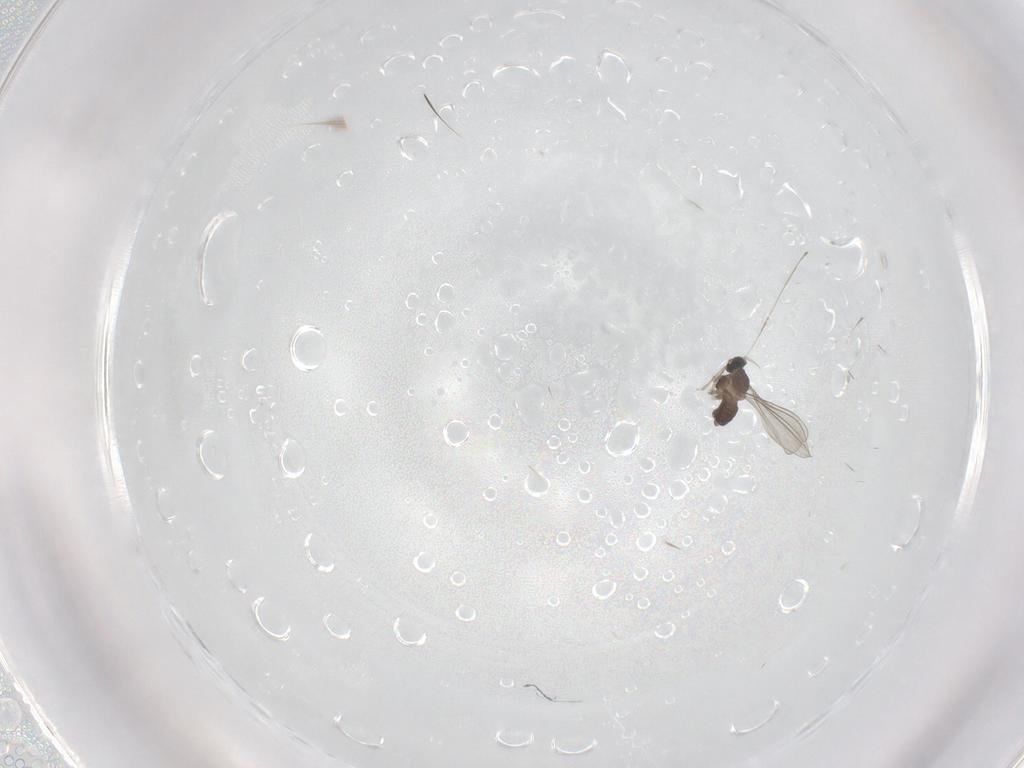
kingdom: Animalia
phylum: Arthropoda
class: Insecta
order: Diptera
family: Cecidomyiidae
